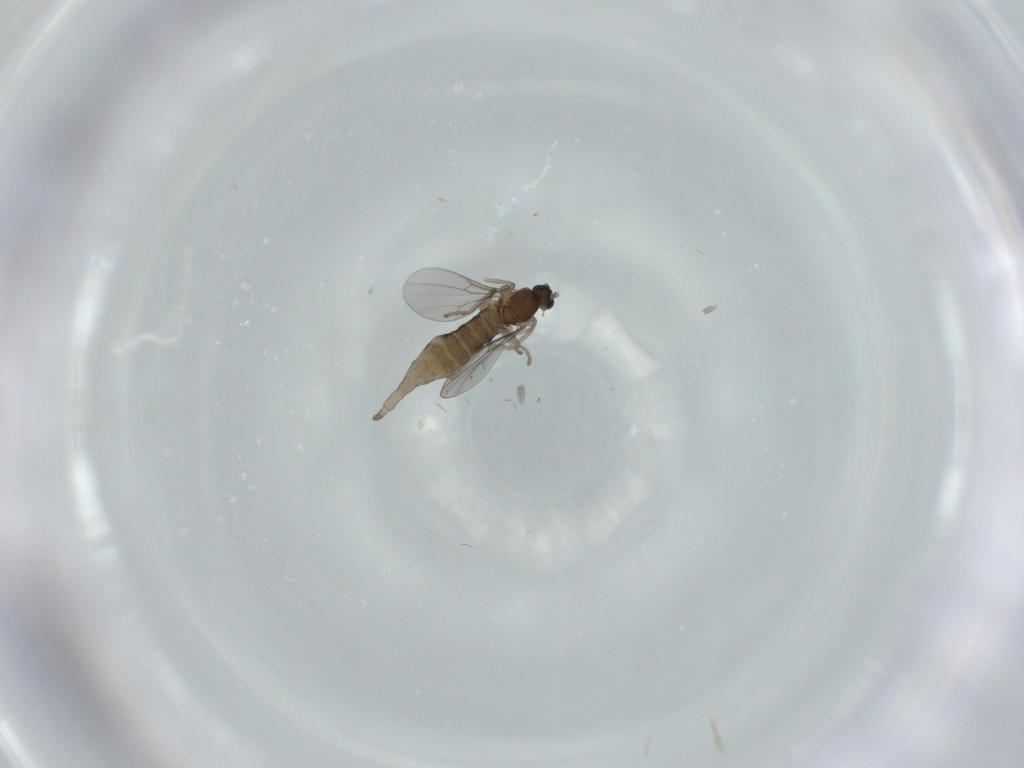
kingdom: Animalia
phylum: Arthropoda
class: Insecta
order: Diptera
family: Cecidomyiidae
